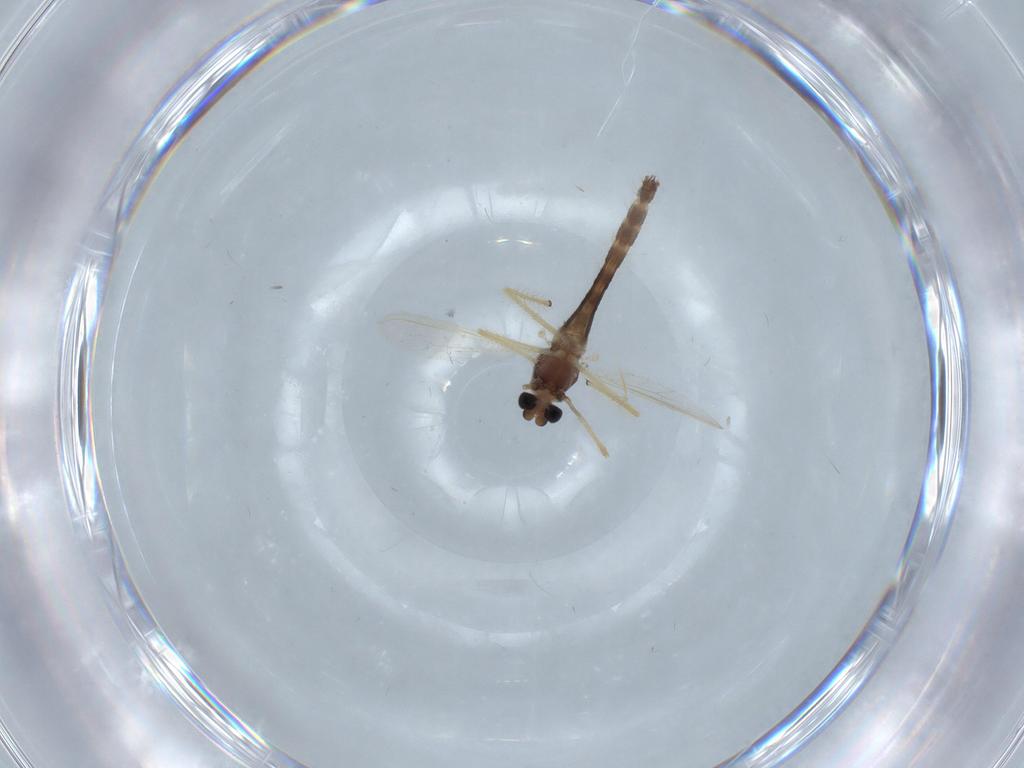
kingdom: Animalia
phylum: Arthropoda
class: Insecta
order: Diptera
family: Chironomidae
